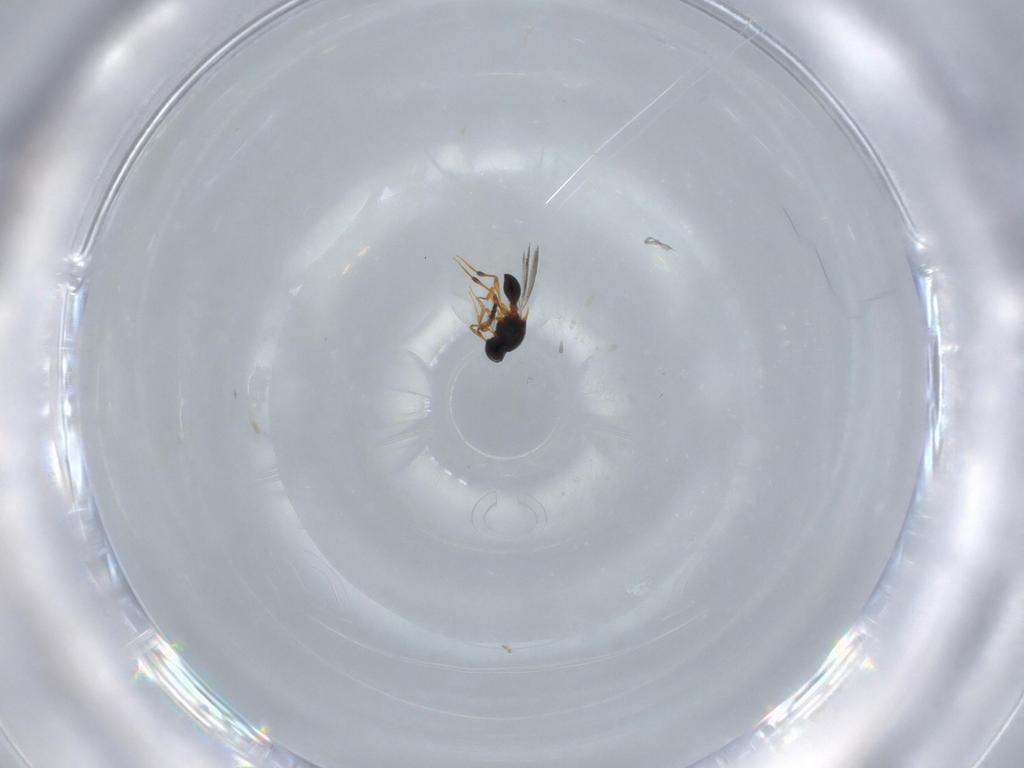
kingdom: Animalia
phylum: Arthropoda
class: Insecta
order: Hymenoptera
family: Platygastridae
